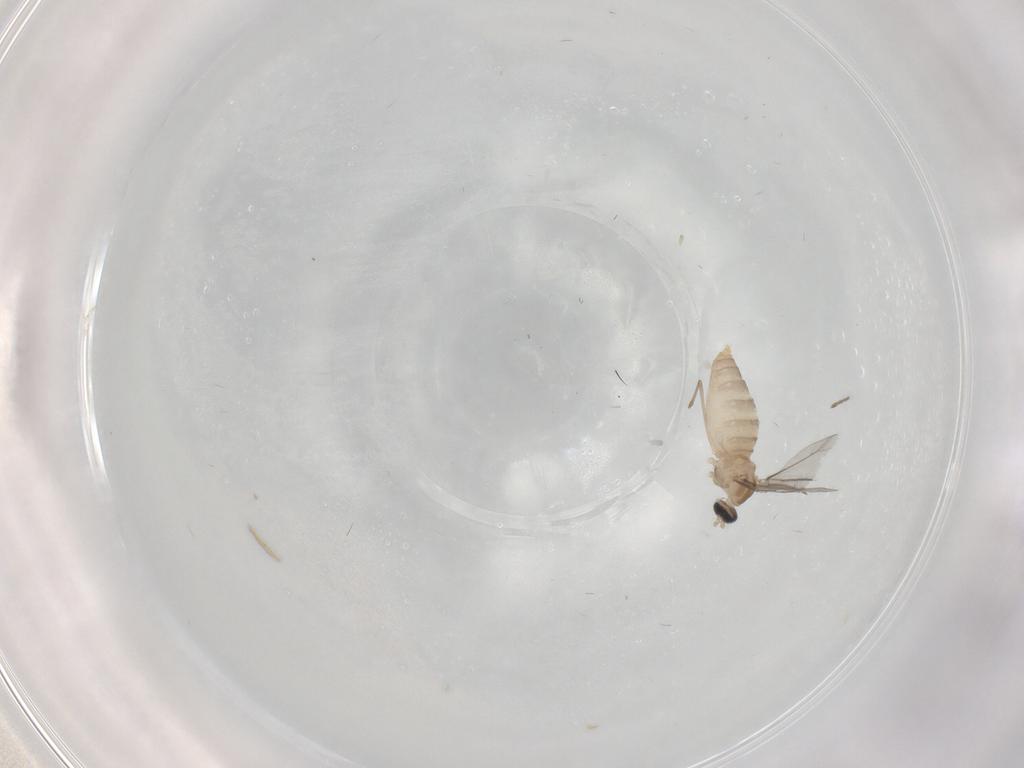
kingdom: Animalia
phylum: Arthropoda
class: Insecta
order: Diptera
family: Cecidomyiidae
